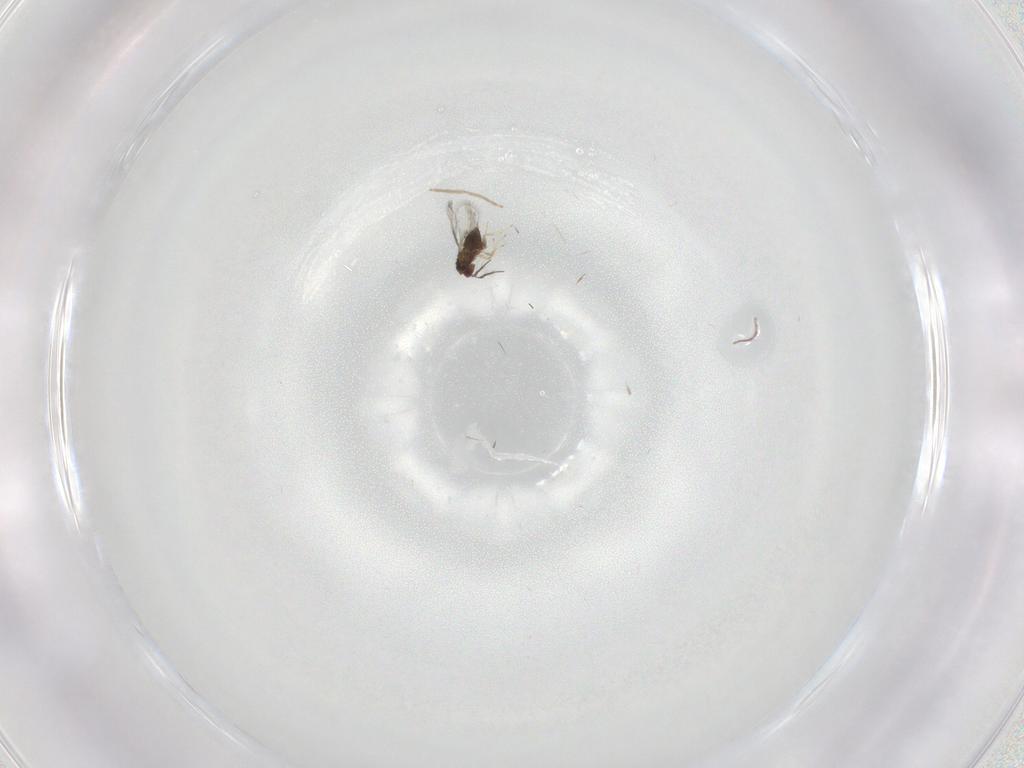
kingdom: Animalia
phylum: Arthropoda
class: Insecta
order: Hymenoptera
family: Trichogrammatidae
